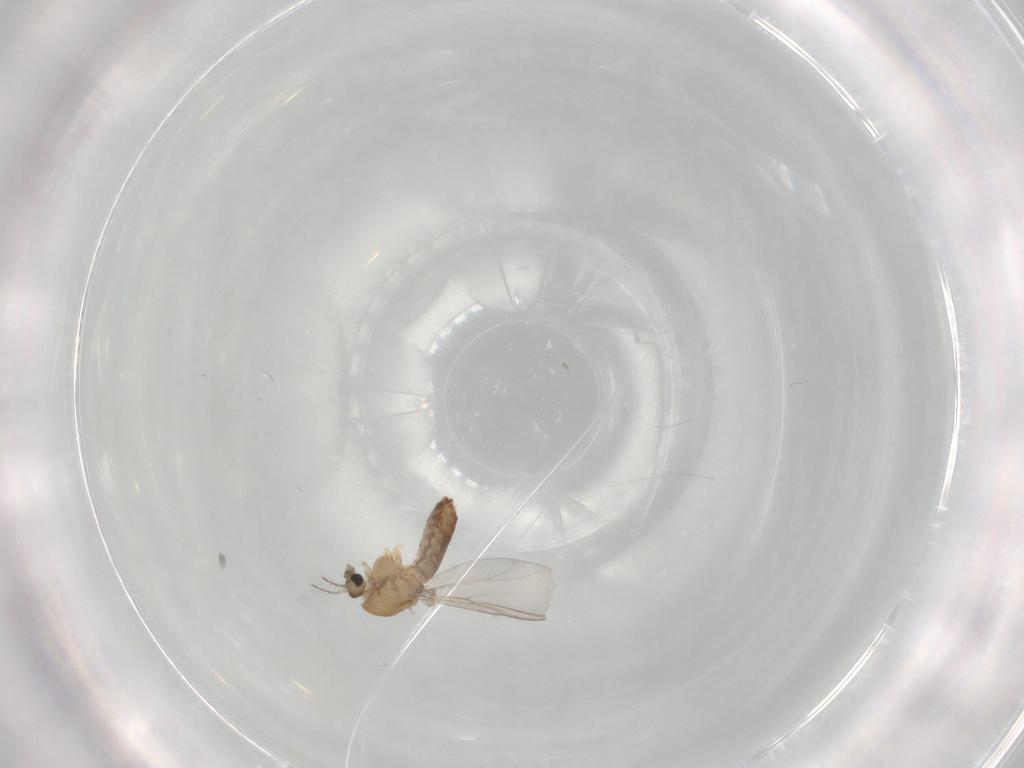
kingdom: Animalia
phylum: Arthropoda
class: Insecta
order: Diptera
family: Chironomidae
